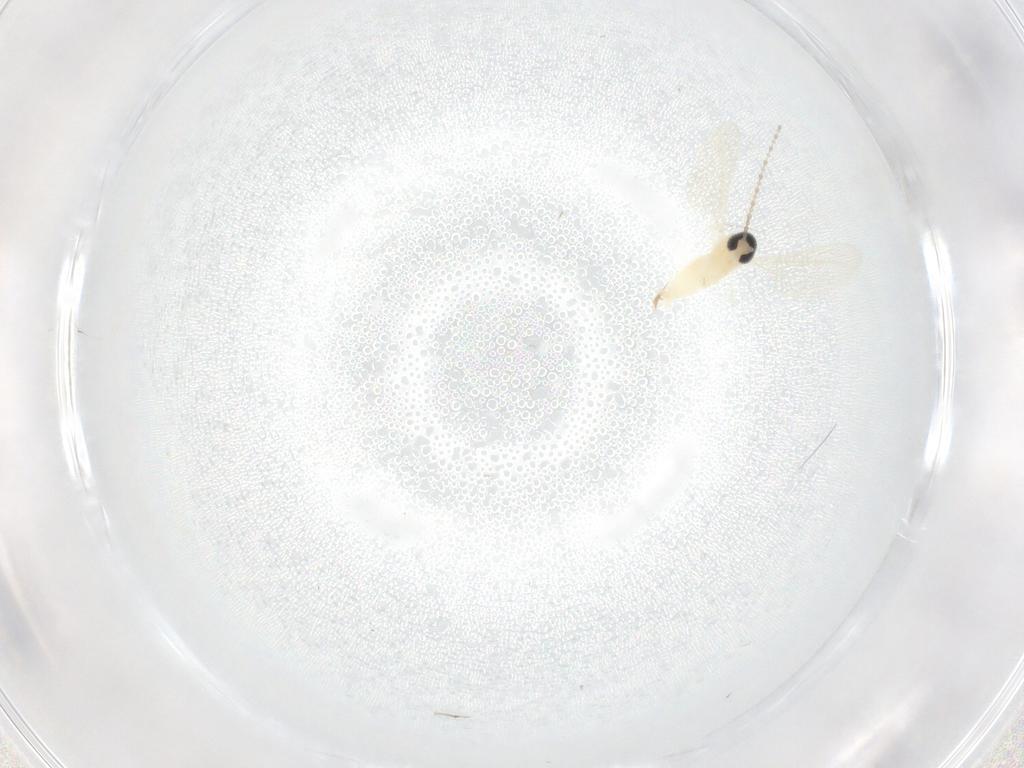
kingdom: Animalia
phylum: Arthropoda
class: Insecta
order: Diptera
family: Cecidomyiidae
